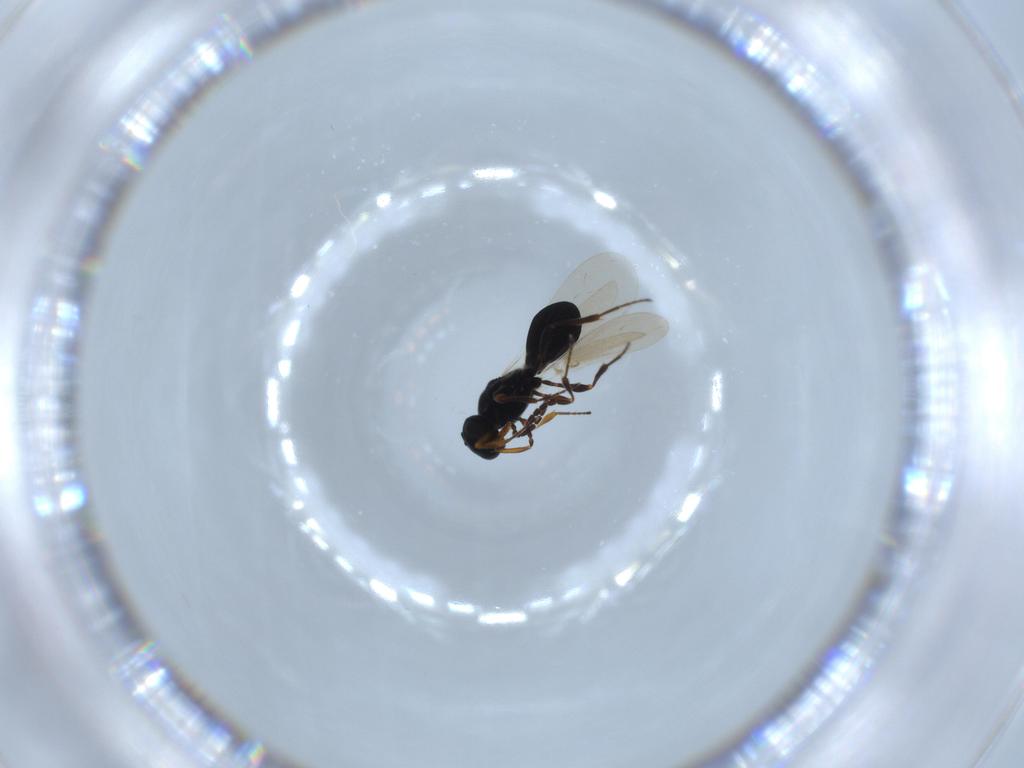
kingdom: Animalia
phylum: Arthropoda
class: Insecta
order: Hymenoptera
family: Platygastridae
